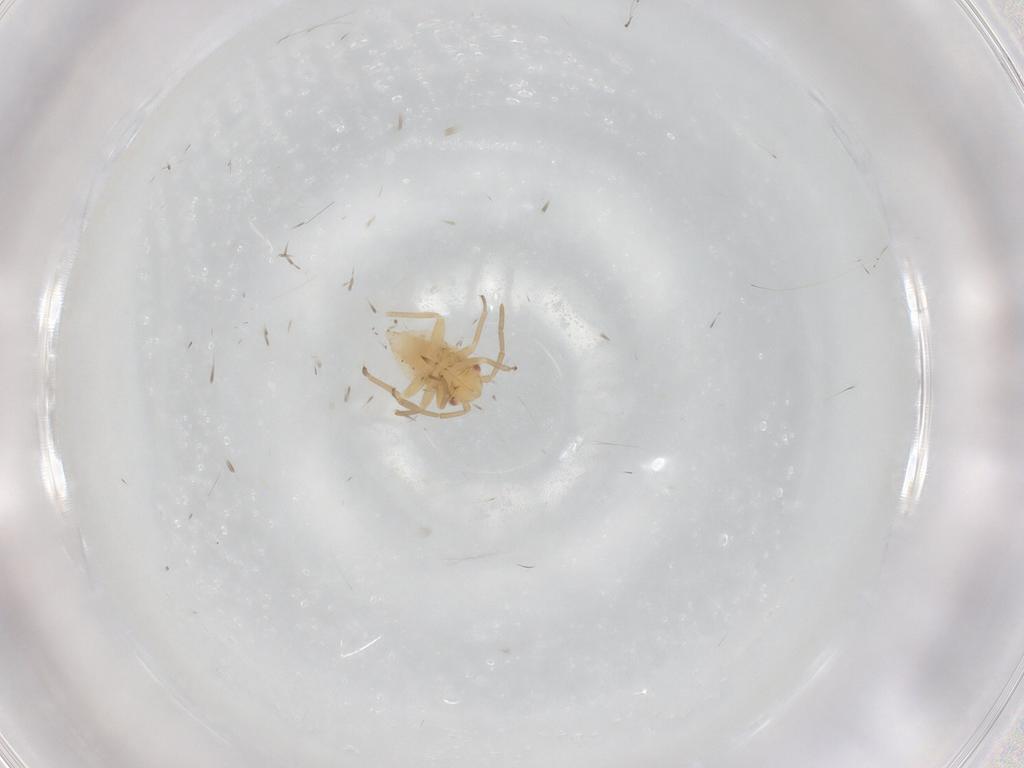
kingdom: Animalia
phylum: Arthropoda
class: Insecta
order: Hemiptera
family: Miridae
